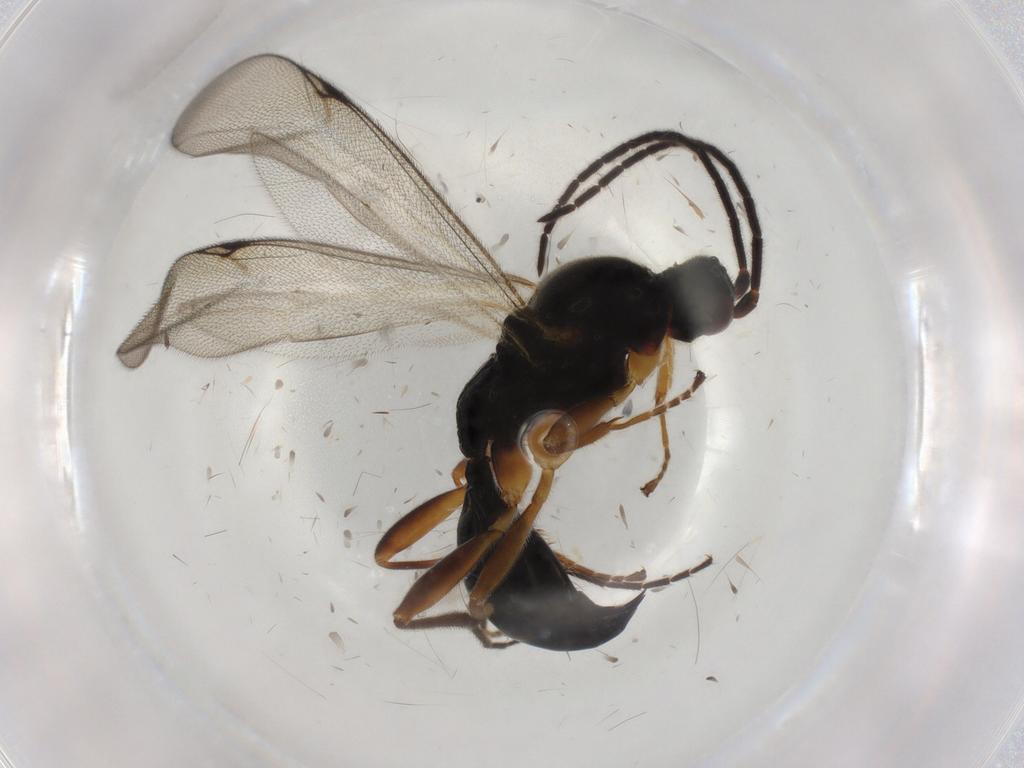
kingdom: Animalia
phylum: Arthropoda
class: Insecta
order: Hymenoptera
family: Mymaridae
